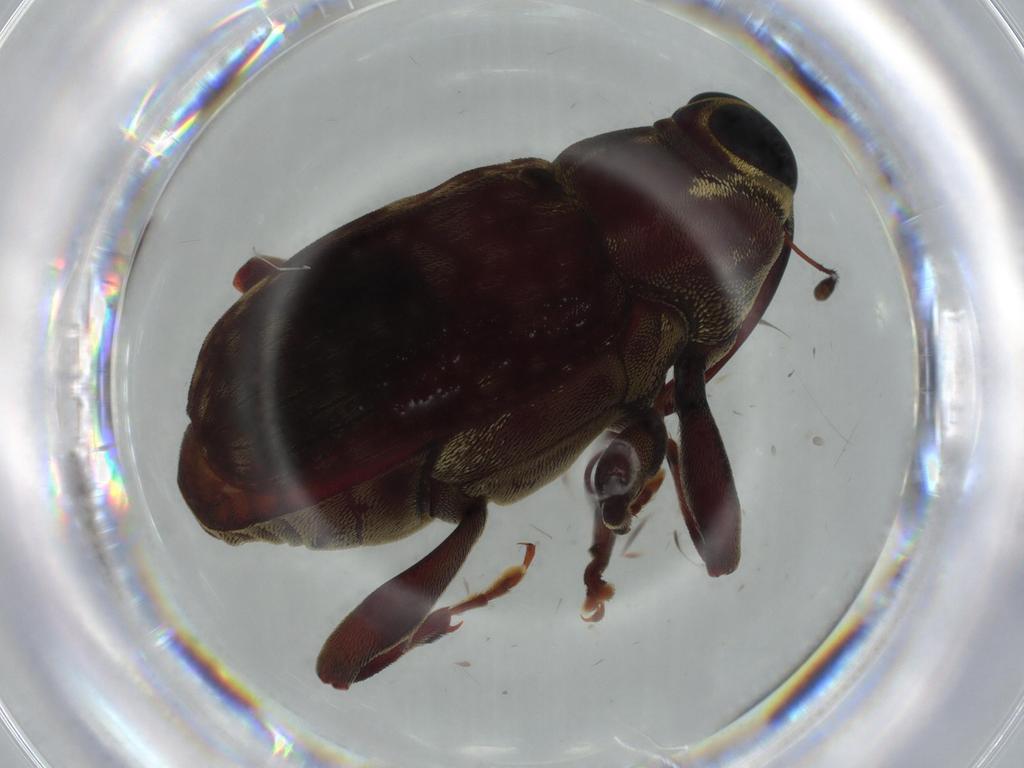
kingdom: Animalia
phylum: Arthropoda
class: Insecta
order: Coleoptera
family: Curculionidae
